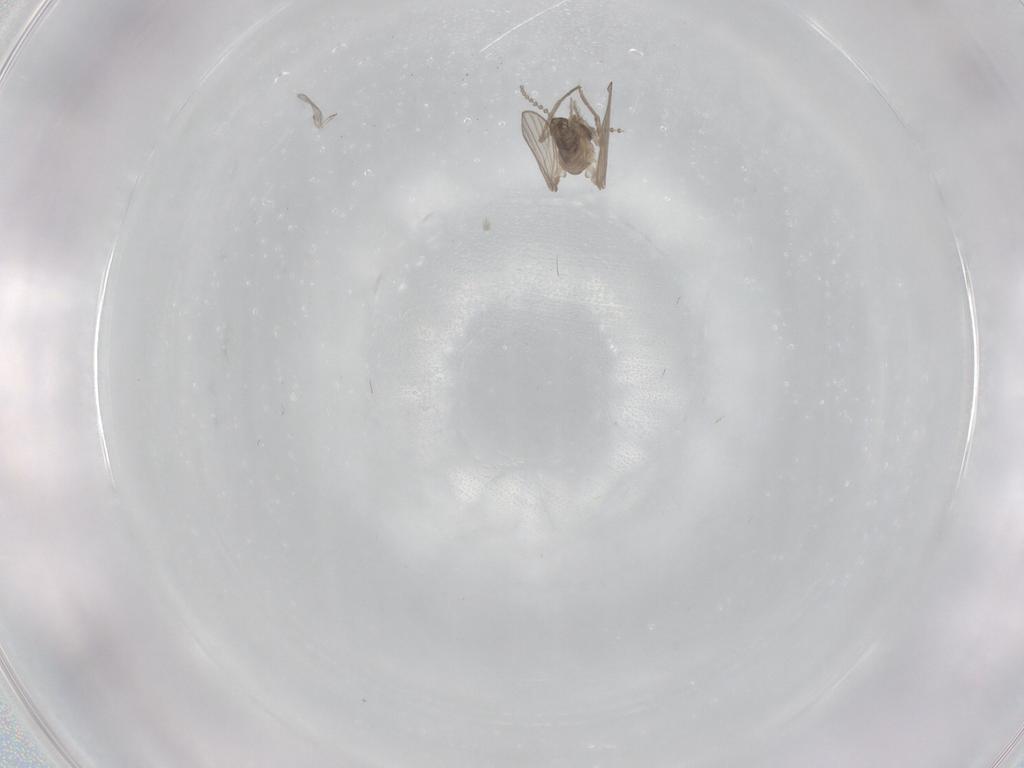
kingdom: Animalia
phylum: Arthropoda
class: Insecta
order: Diptera
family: Psychodidae
